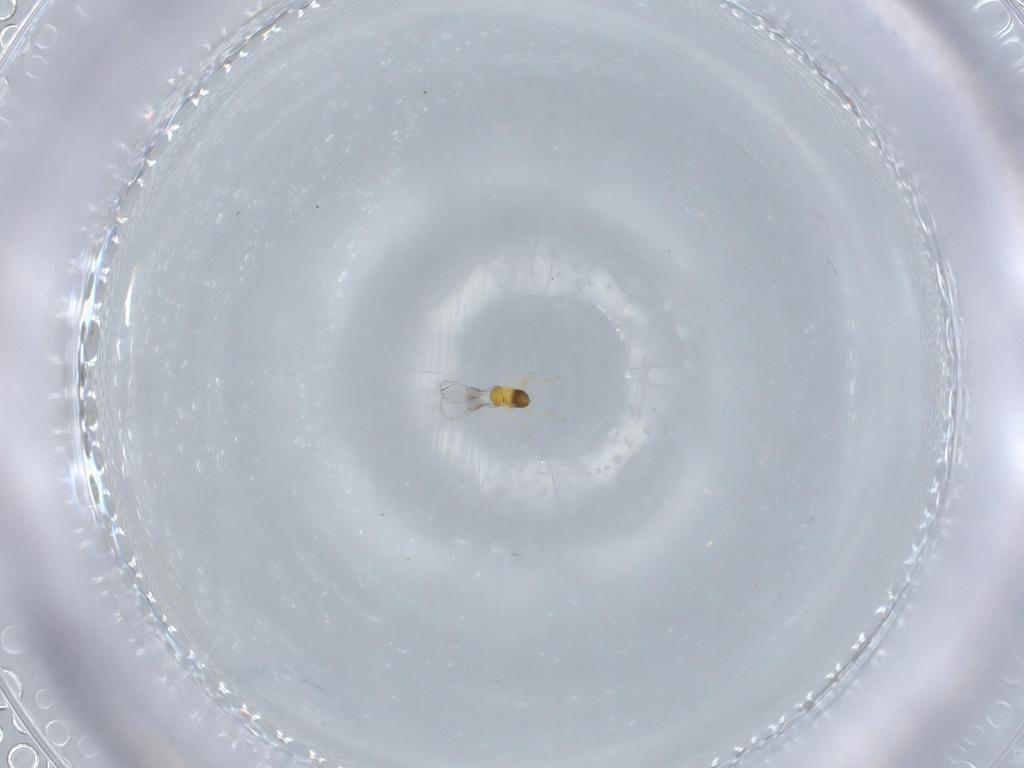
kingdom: Animalia
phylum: Arthropoda
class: Insecta
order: Hymenoptera
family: Trichogrammatidae
